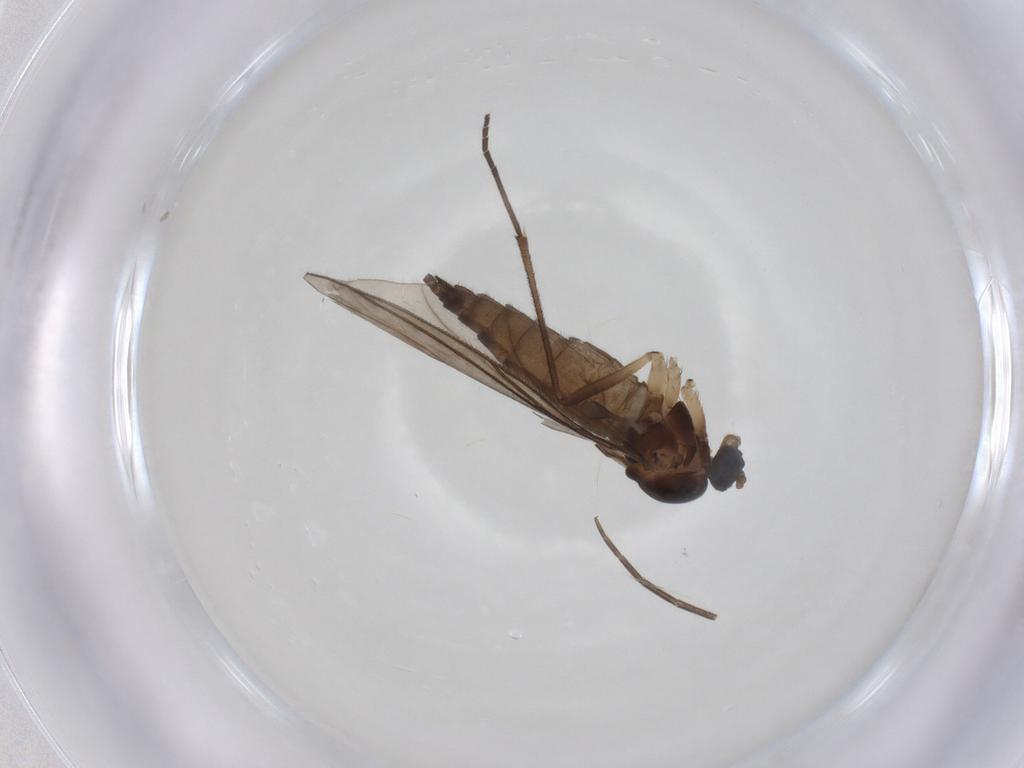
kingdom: Animalia
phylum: Arthropoda
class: Insecta
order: Diptera
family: Sciaridae
